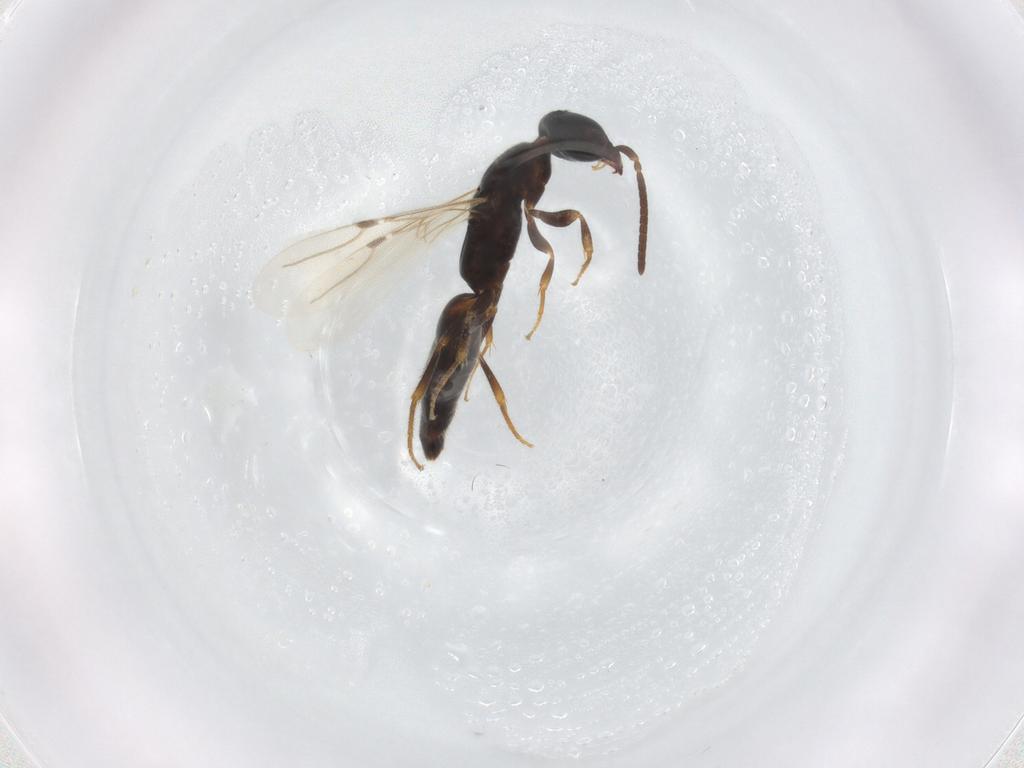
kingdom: Animalia
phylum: Arthropoda
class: Insecta
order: Hymenoptera
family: Bethylidae
